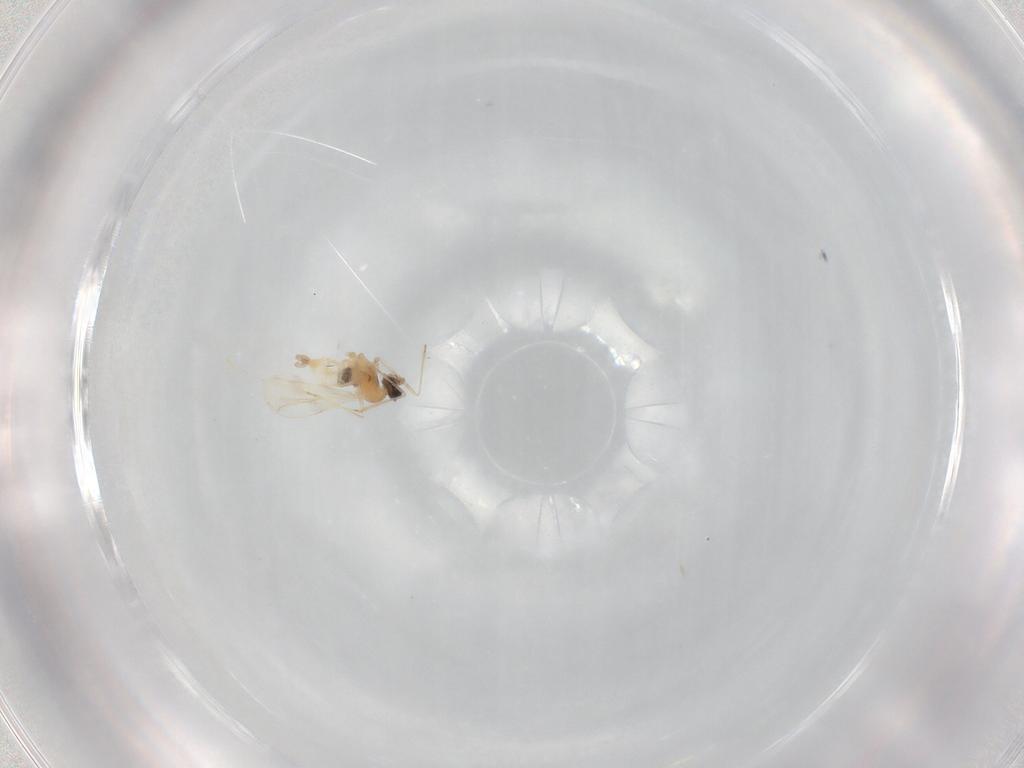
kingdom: Animalia
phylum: Arthropoda
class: Insecta
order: Diptera
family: Cecidomyiidae
